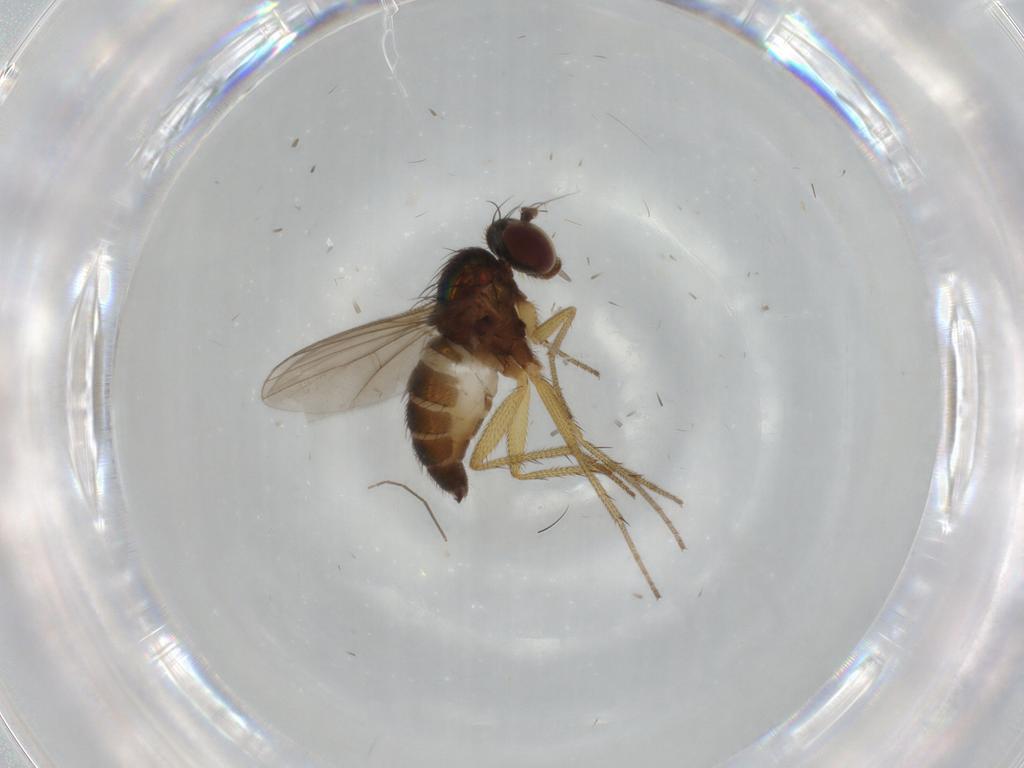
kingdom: Animalia
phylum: Arthropoda
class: Insecta
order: Diptera
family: Dolichopodidae
